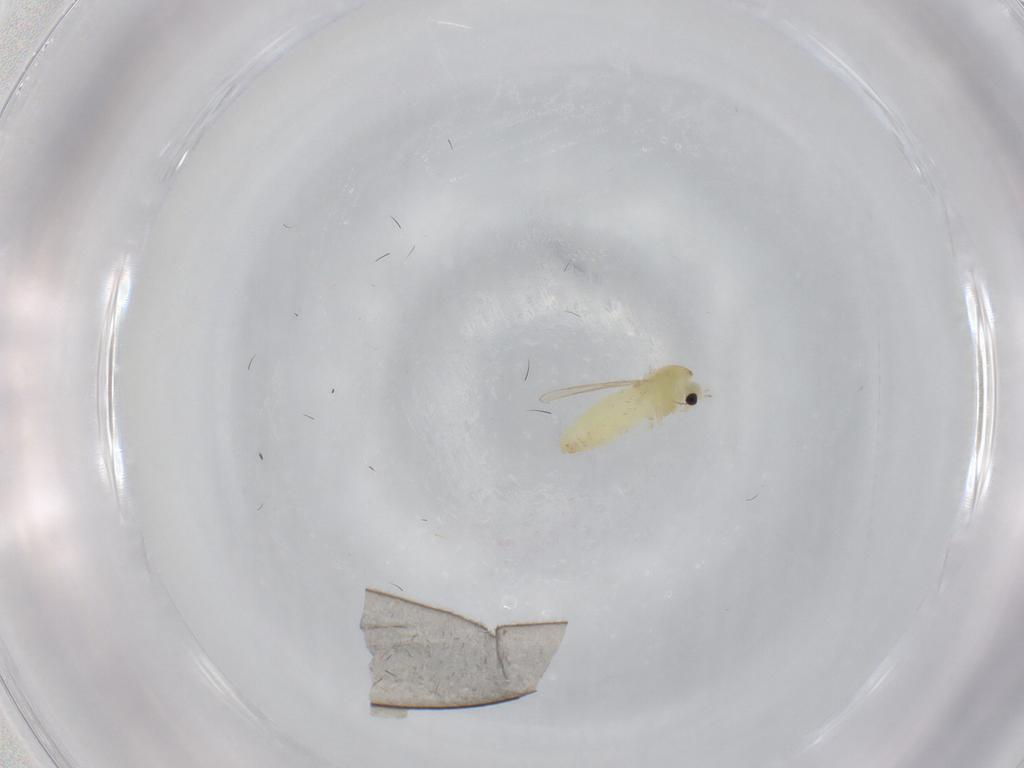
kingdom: Animalia
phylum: Arthropoda
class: Insecta
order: Diptera
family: Chironomidae
